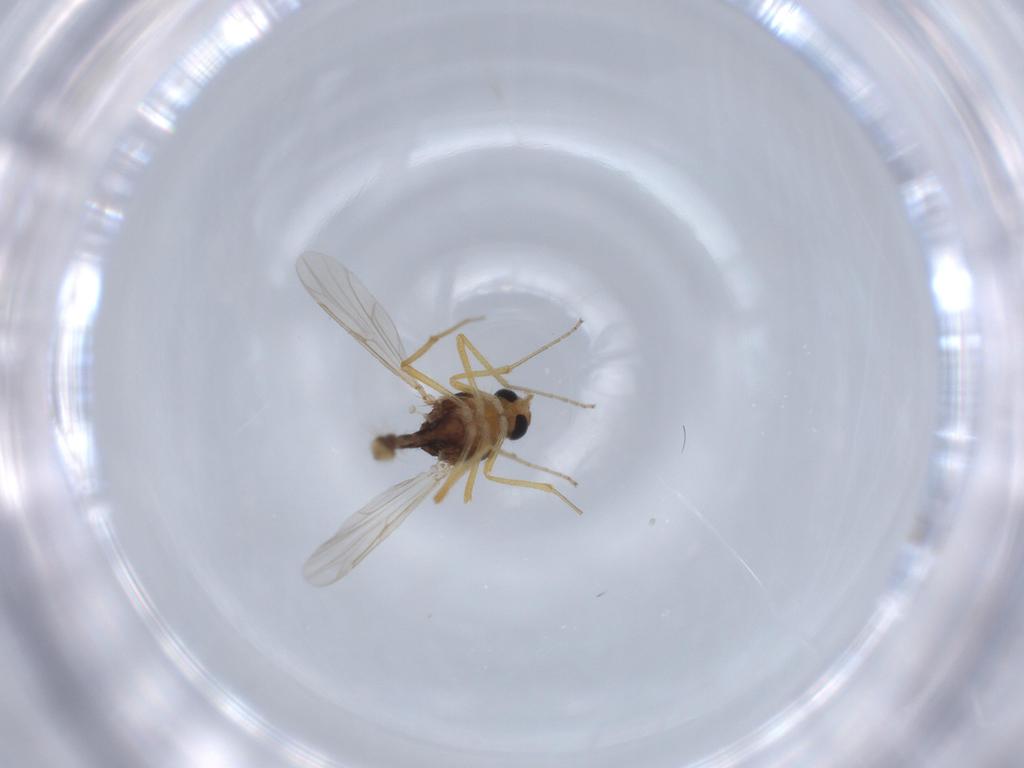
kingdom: Animalia
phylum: Arthropoda
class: Insecta
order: Diptera
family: Hybotidae
